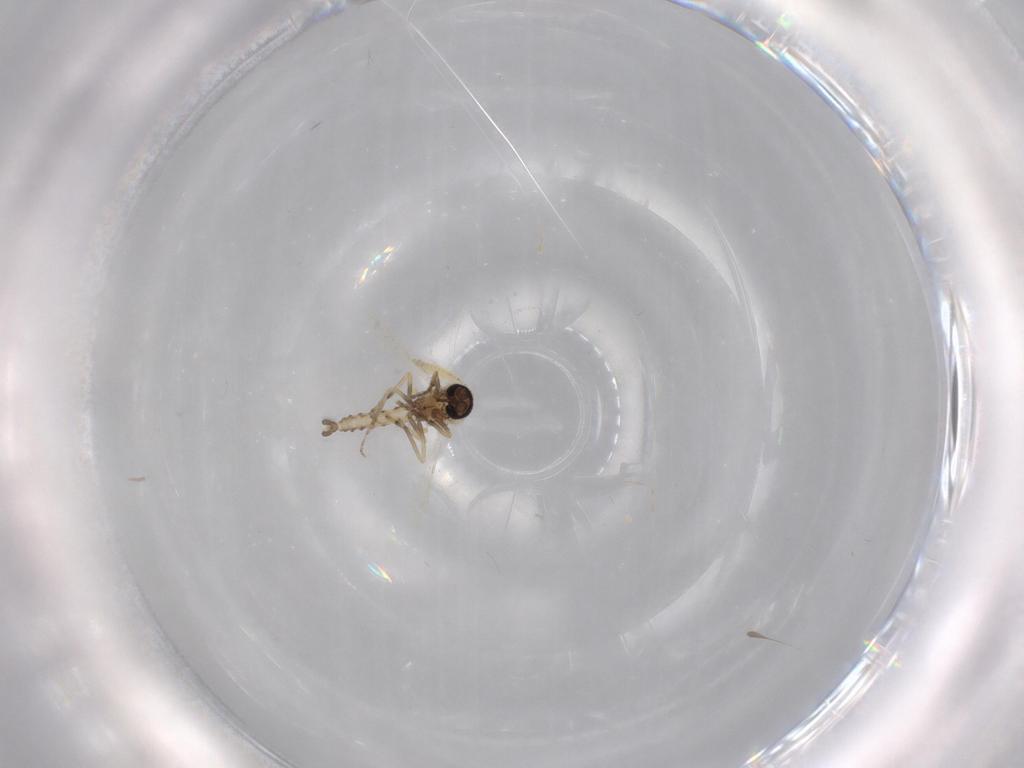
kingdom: Animalia
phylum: Arthropoda
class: Insecta
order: Diptera
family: Ceratopogonidae
